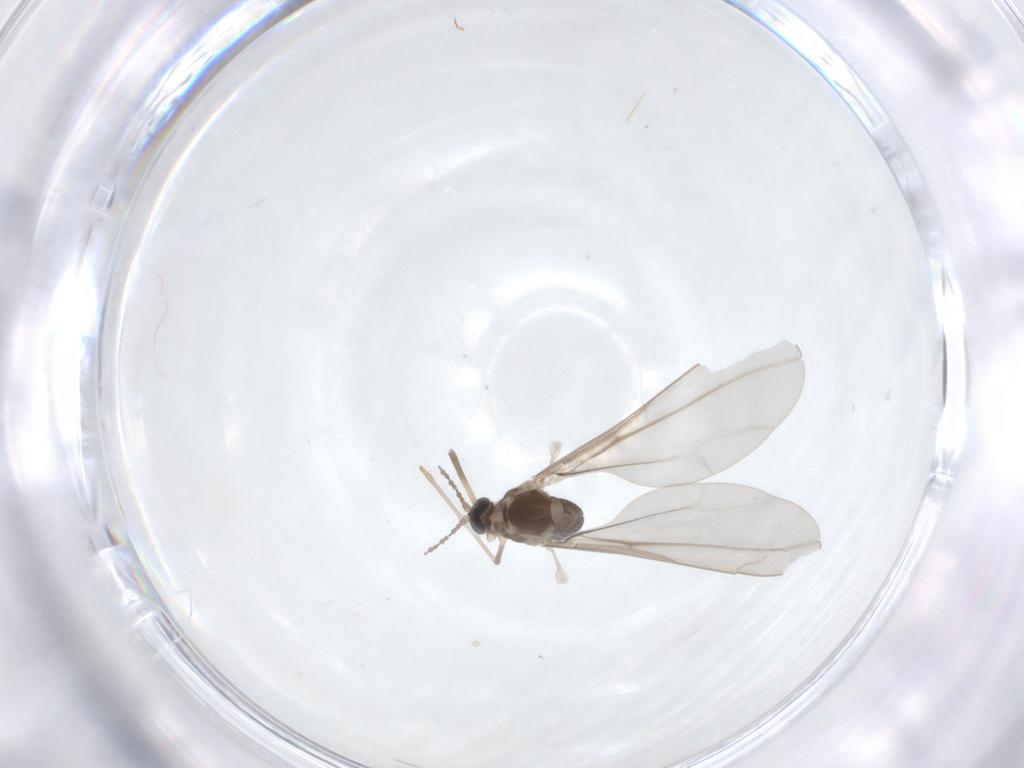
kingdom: Animalia
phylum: Arthropoda
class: Insecta
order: Diptera
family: Cecidomyiidae
